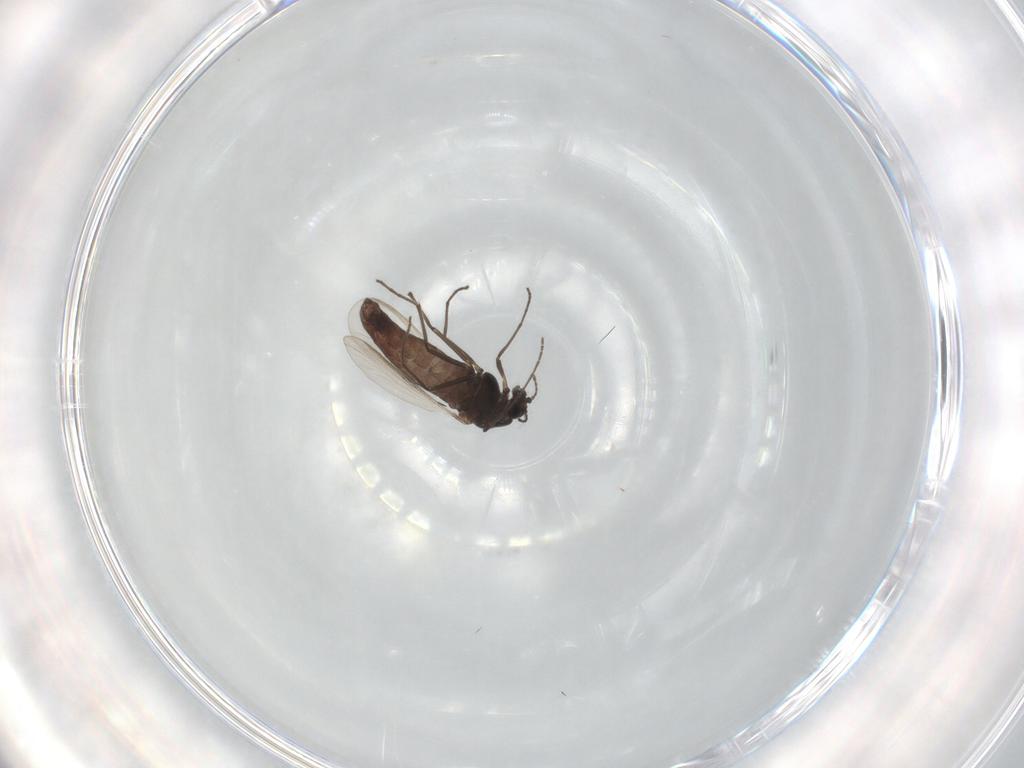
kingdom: Animalia
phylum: Arthropoda
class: Insecta
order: Diptera
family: Chironomidae
